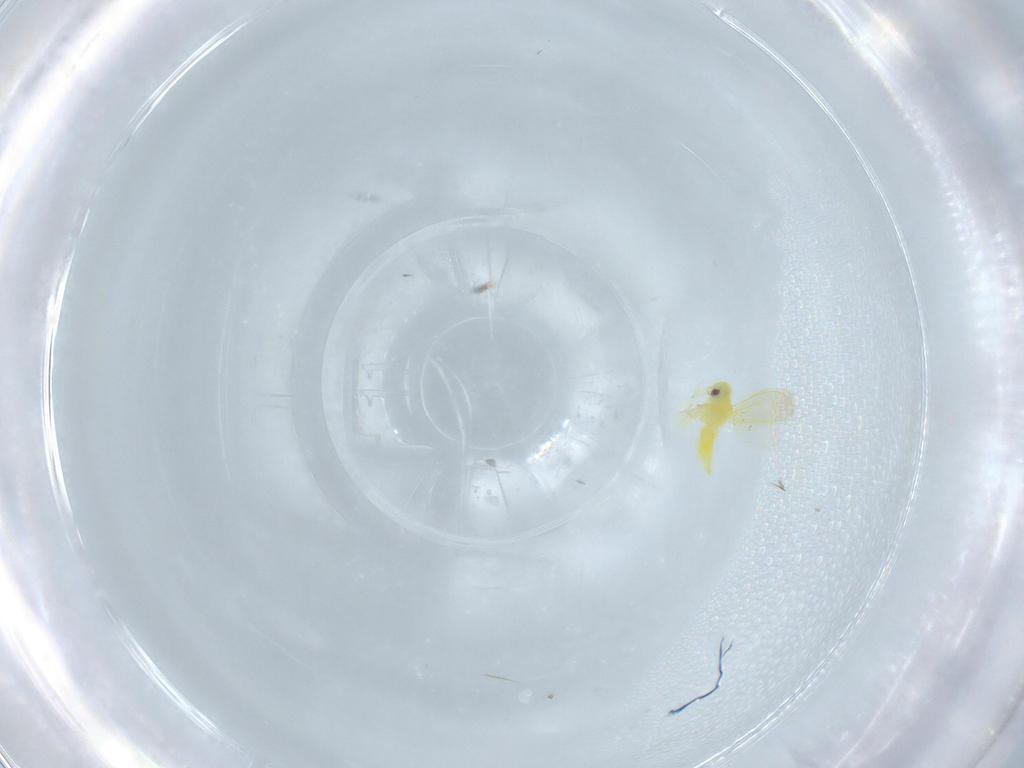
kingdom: Animalia
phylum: Arthropoda
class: Insecta
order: Hemiptera
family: Aleyrodidae
